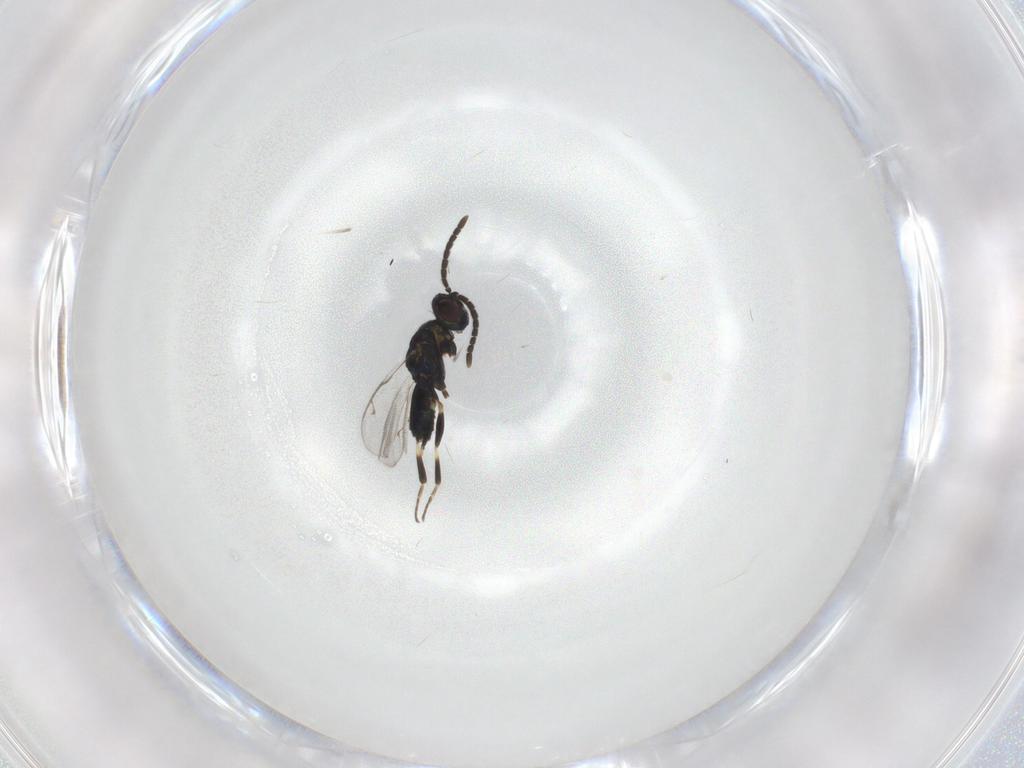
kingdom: Animalia
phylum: Arthropoda
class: Insecta
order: Hymenoptera
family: Eupelmidae
